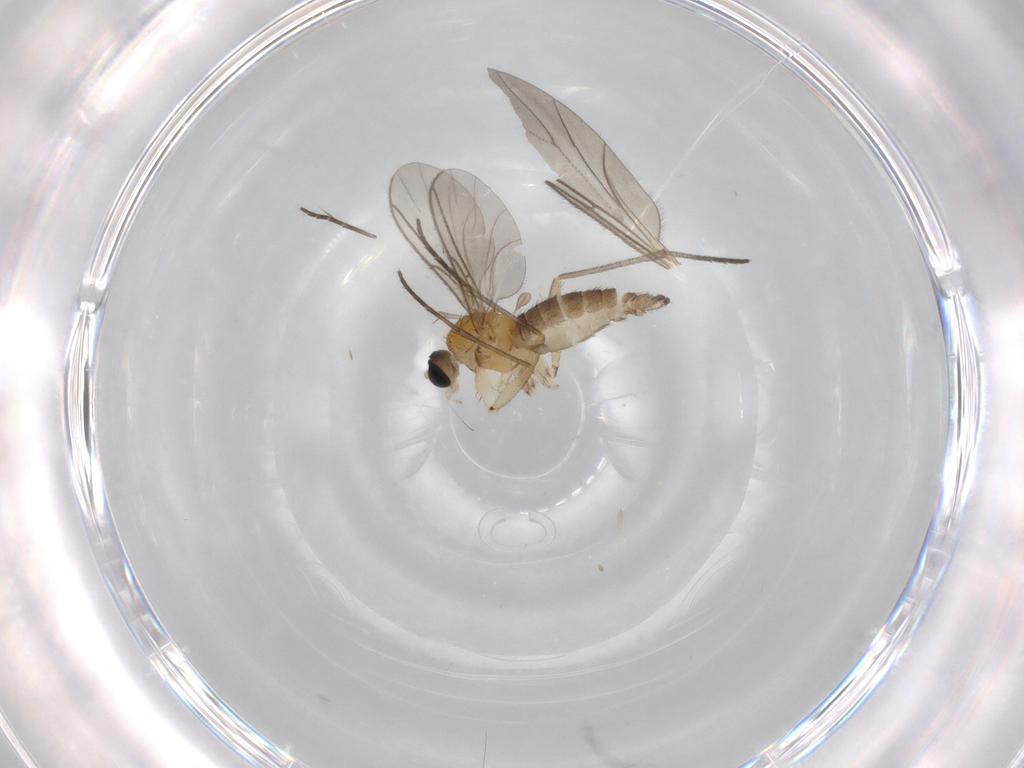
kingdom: Animalia
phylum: Arthropoda
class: Insecta
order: Diptera
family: Sciaridae
